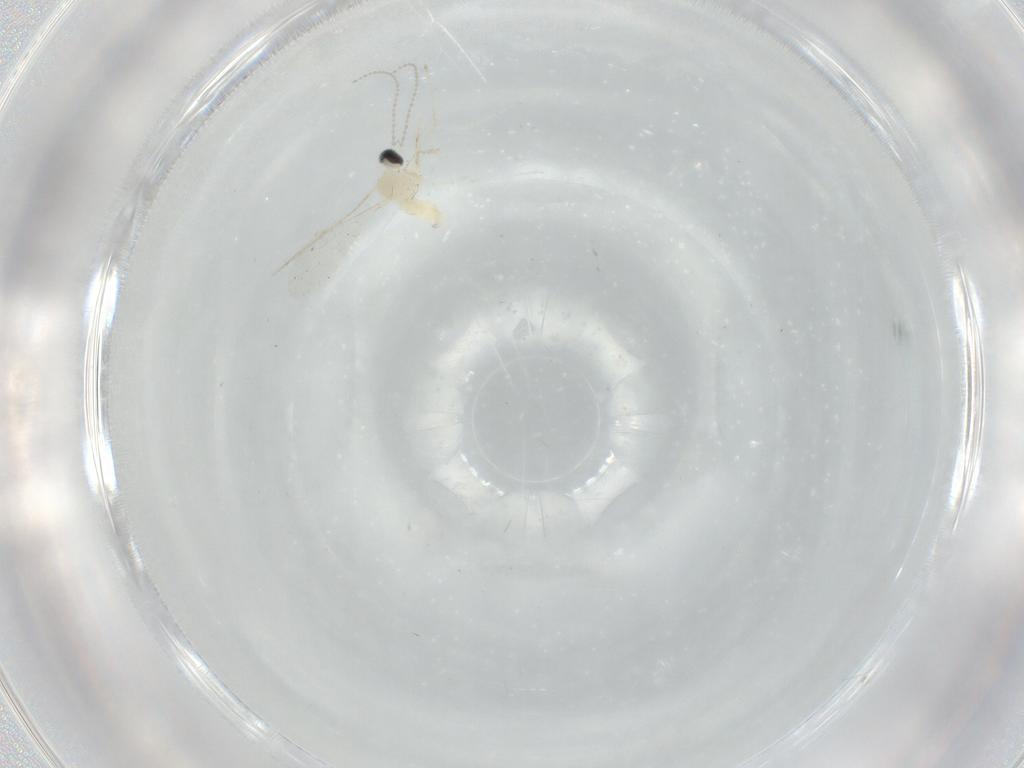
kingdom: Animalia
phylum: Arthropoda
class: Insecta
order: Diptera
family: Cecidomyiidae
